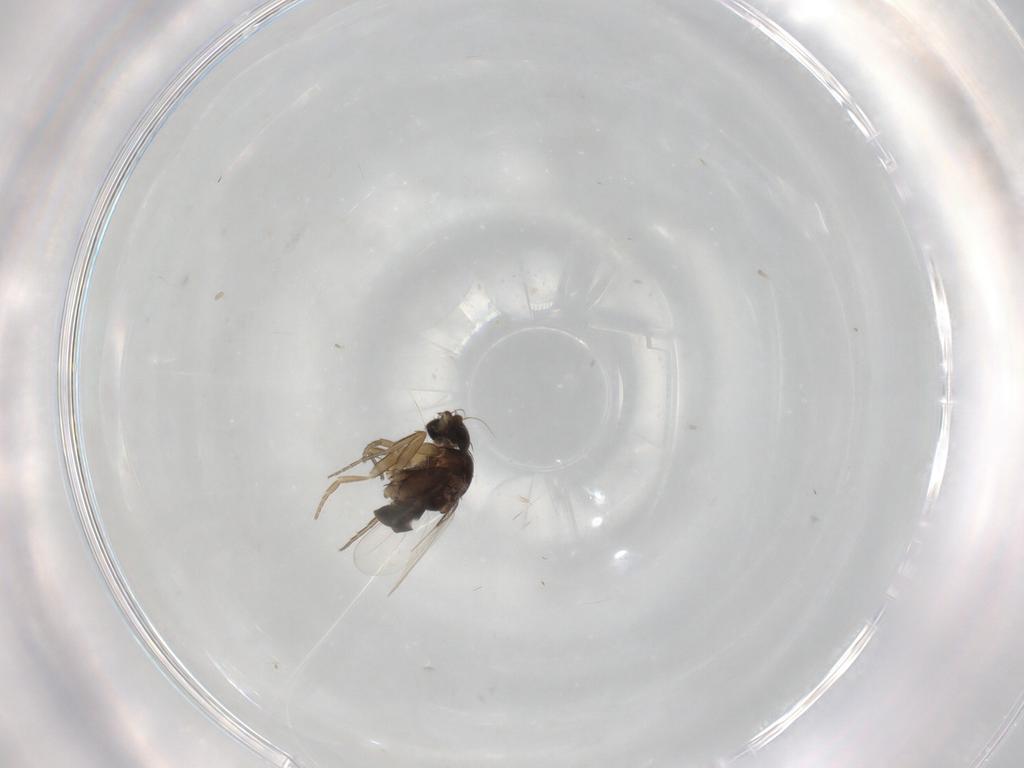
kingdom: Animalia
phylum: Arthropoda
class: Insecta
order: Diptera
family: Phoridae
